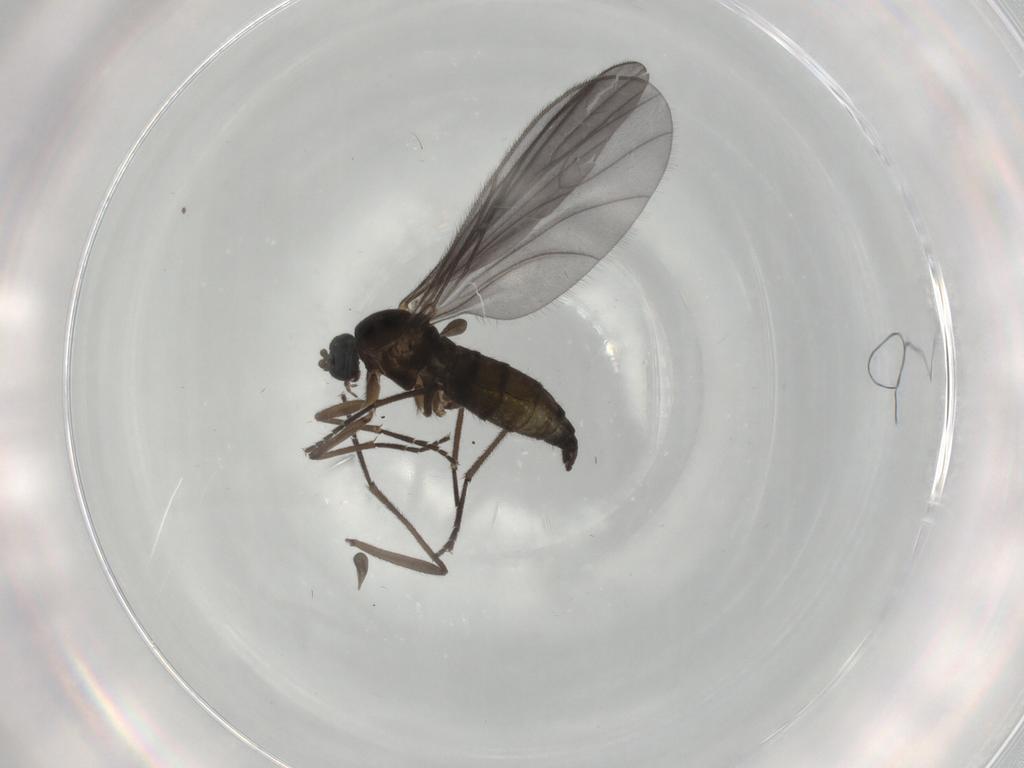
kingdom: Animalia
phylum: Arthropoda
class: Insecta
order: Diptera
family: Sciaridae
